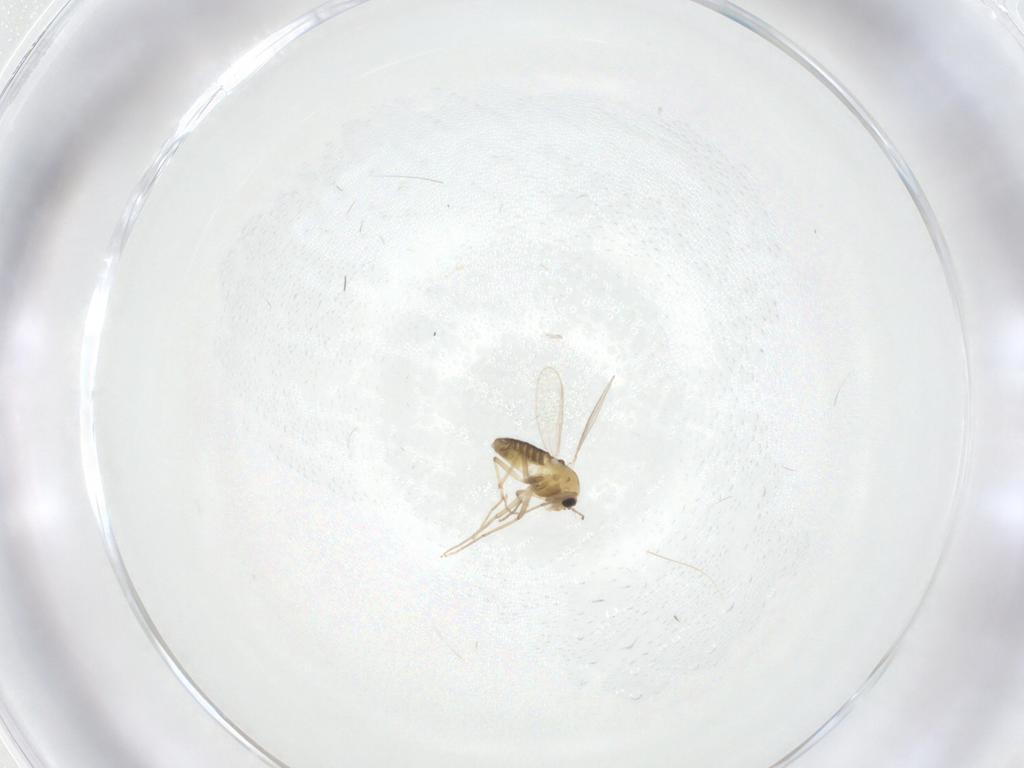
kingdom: Animalia
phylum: Arthropoda
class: Insecta
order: Diptera
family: Chironomidae
